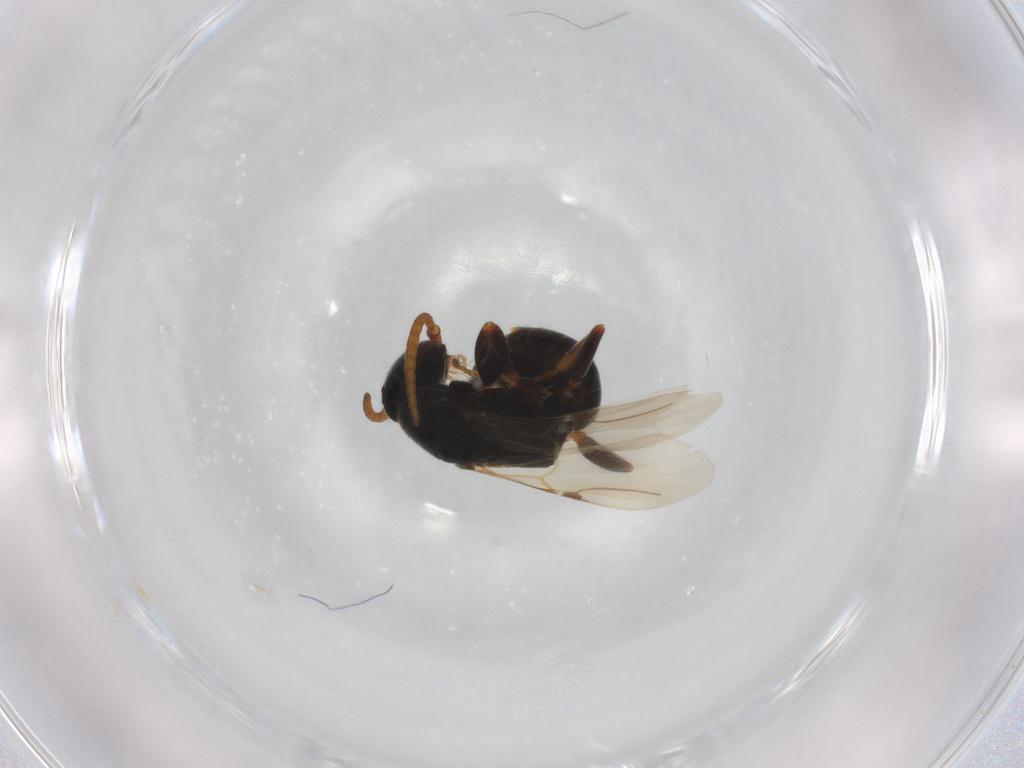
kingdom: Animalia
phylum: Arthropoda
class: Insecta
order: Hymenoptera
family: Bethylidae
